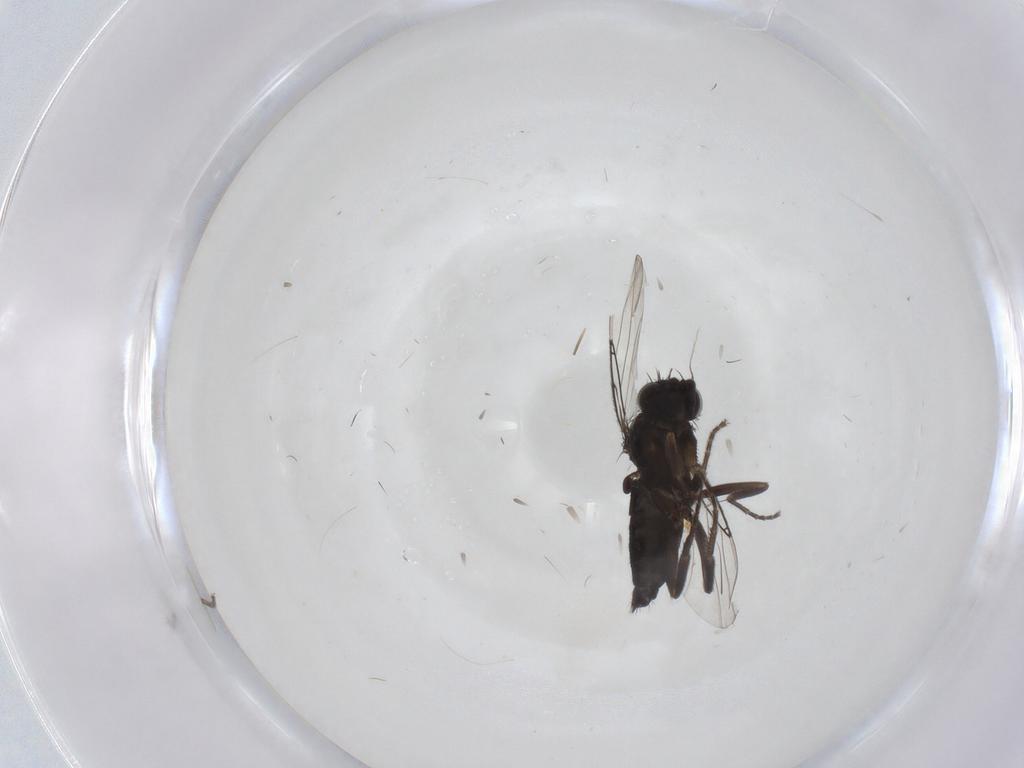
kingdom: Animalia
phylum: Arthropoda
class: Insecta
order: Diptera
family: Phoridae
